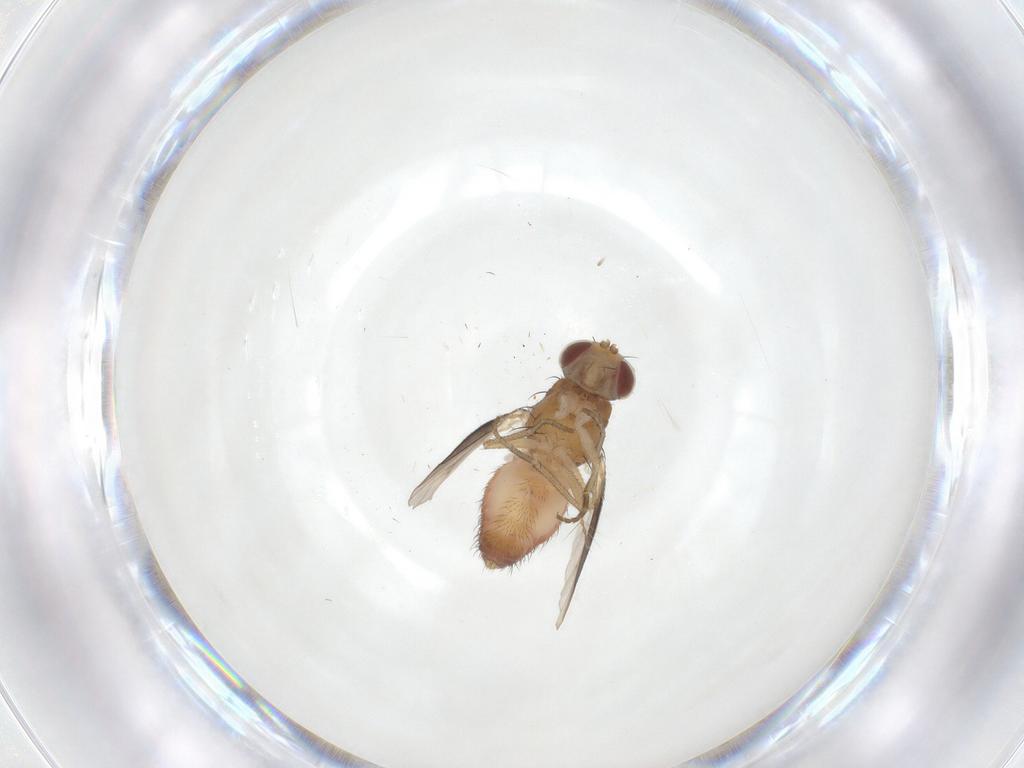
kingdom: Animalia
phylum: Arthropoda
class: Insecta
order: Diptera
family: Heleomyzidae
